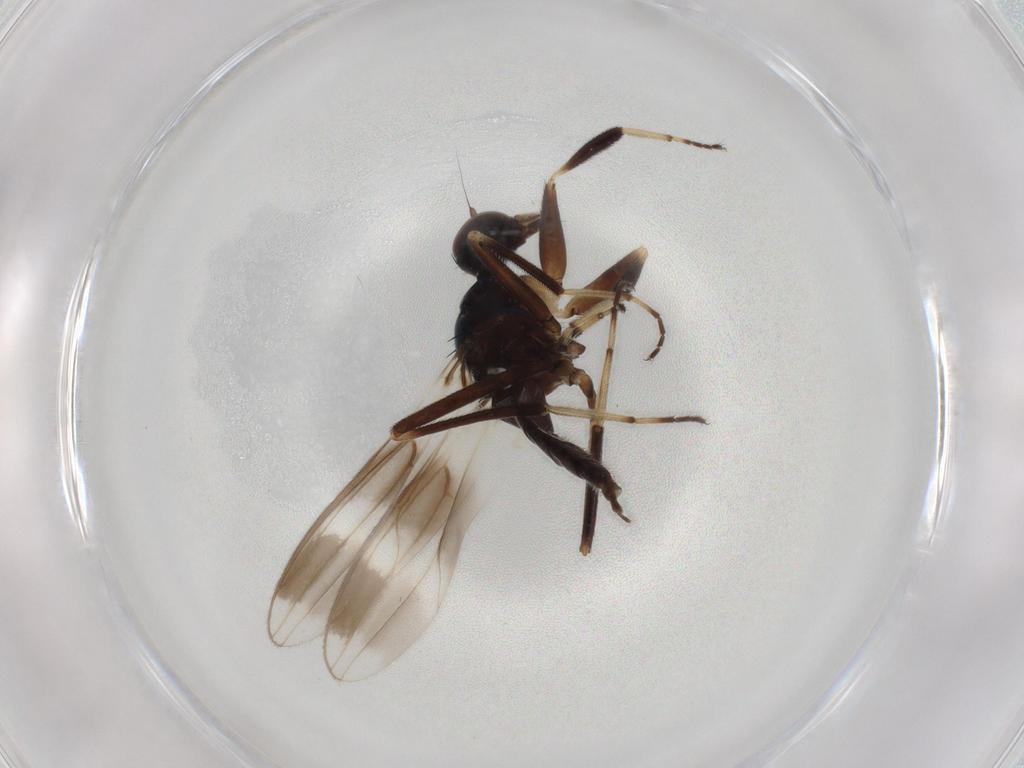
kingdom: Animalia
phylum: Arthropoda
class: Insecta
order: Diptera
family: Hybotidae
